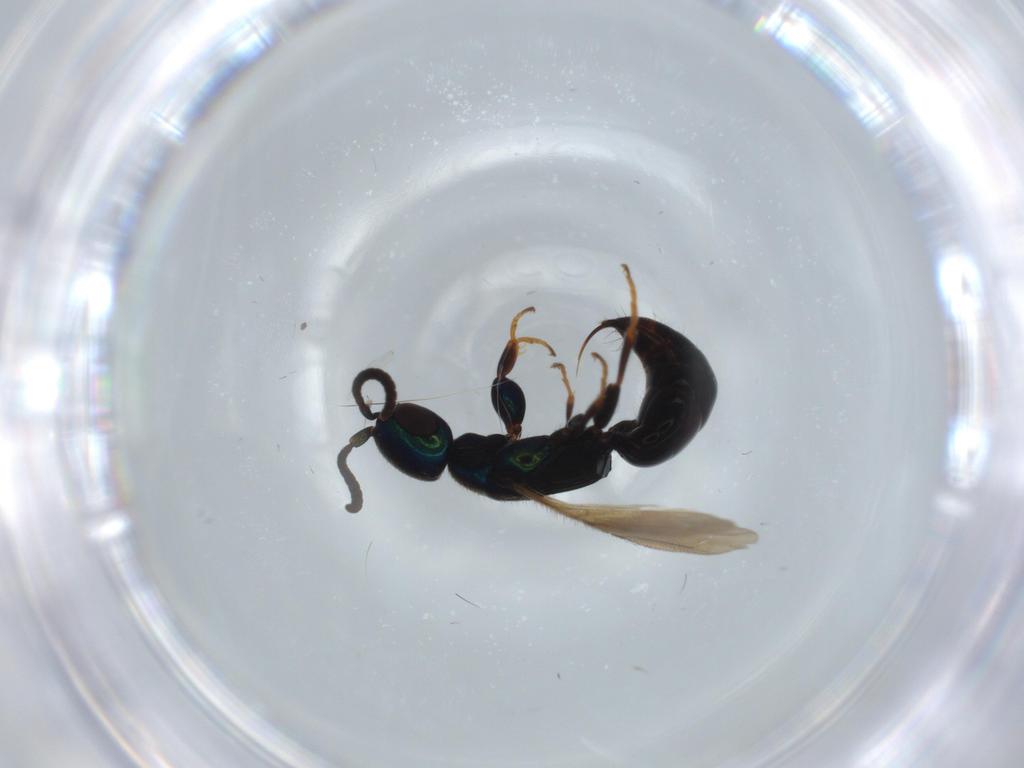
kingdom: Animalia
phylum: Arthropoda
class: Insecta
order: Hymenoptera
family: Bethylidae
